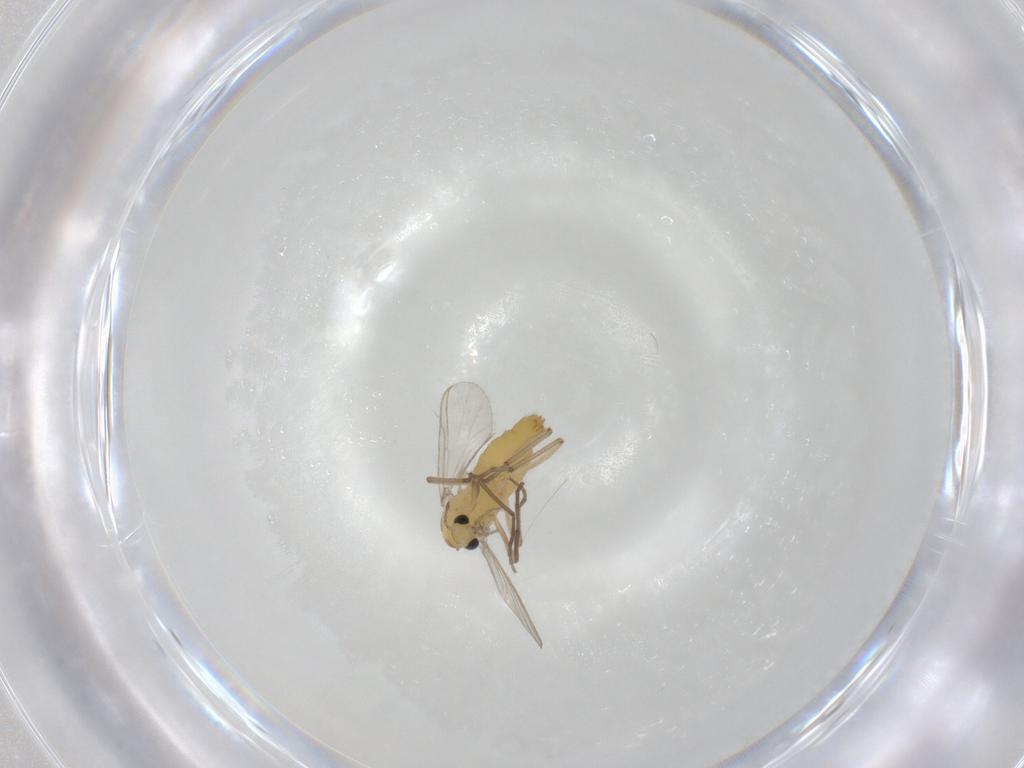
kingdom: Animalia
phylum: Arthropoda
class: Insecta
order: Diptera
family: Chironomidae
